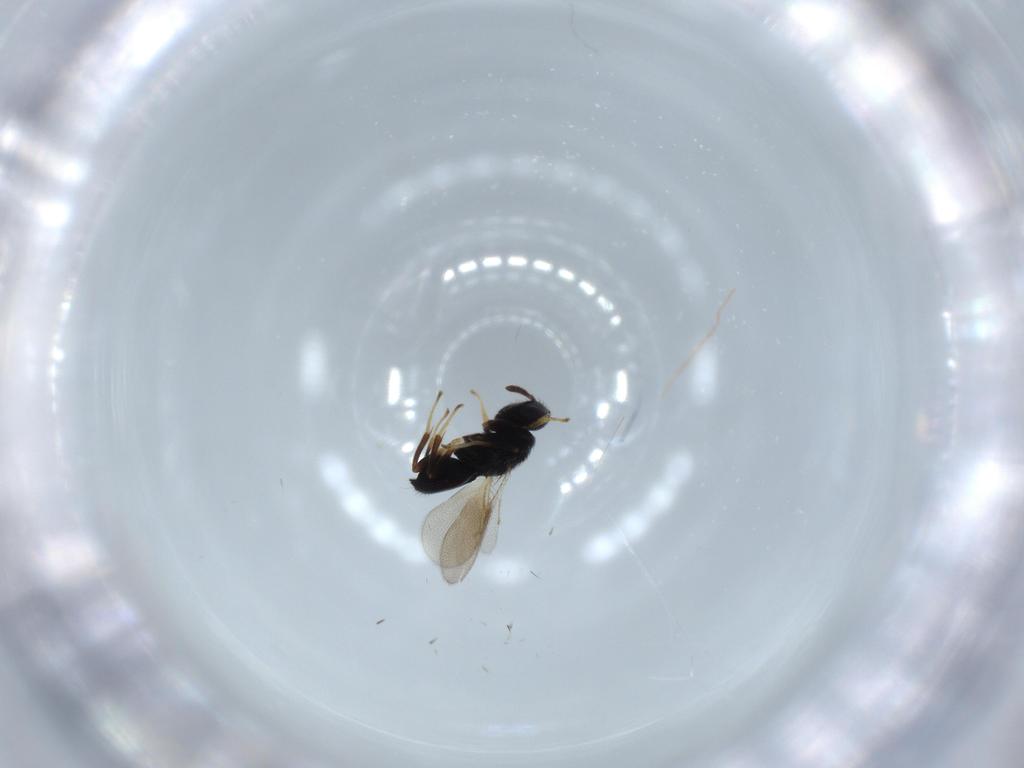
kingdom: Animalia
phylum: Arthropoda
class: Insecta
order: Hymenoptera
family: Pteromalidae
